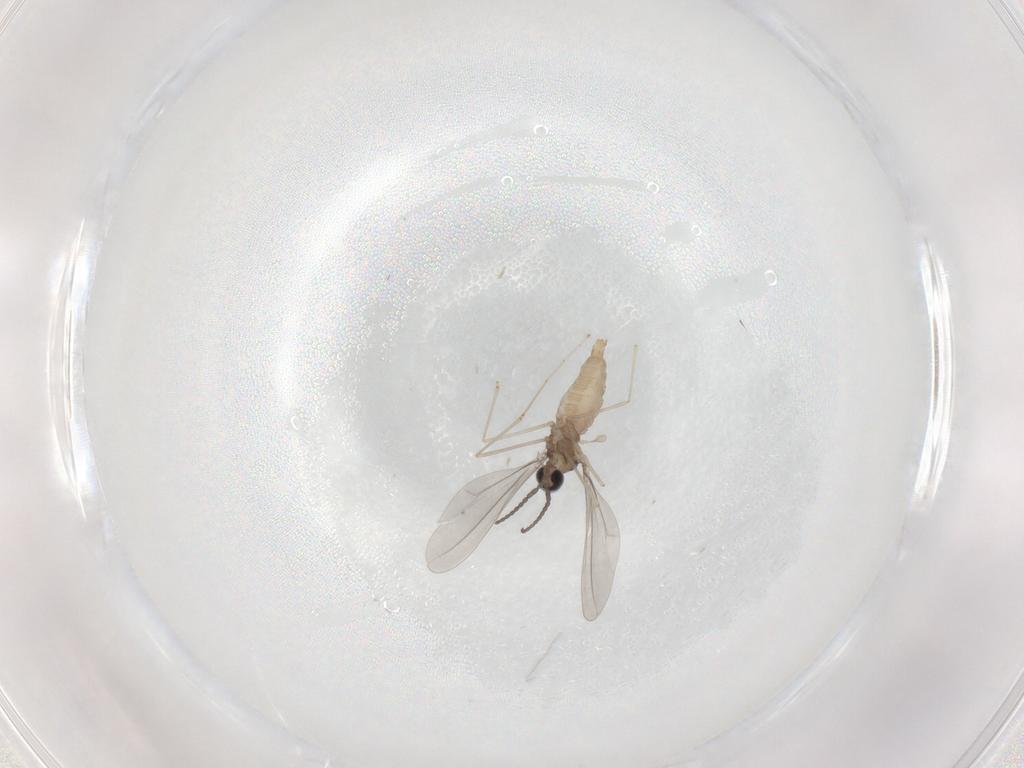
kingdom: Animalia
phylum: Arthropoda
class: Insecta
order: Diptera
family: Cecidomyiidae
